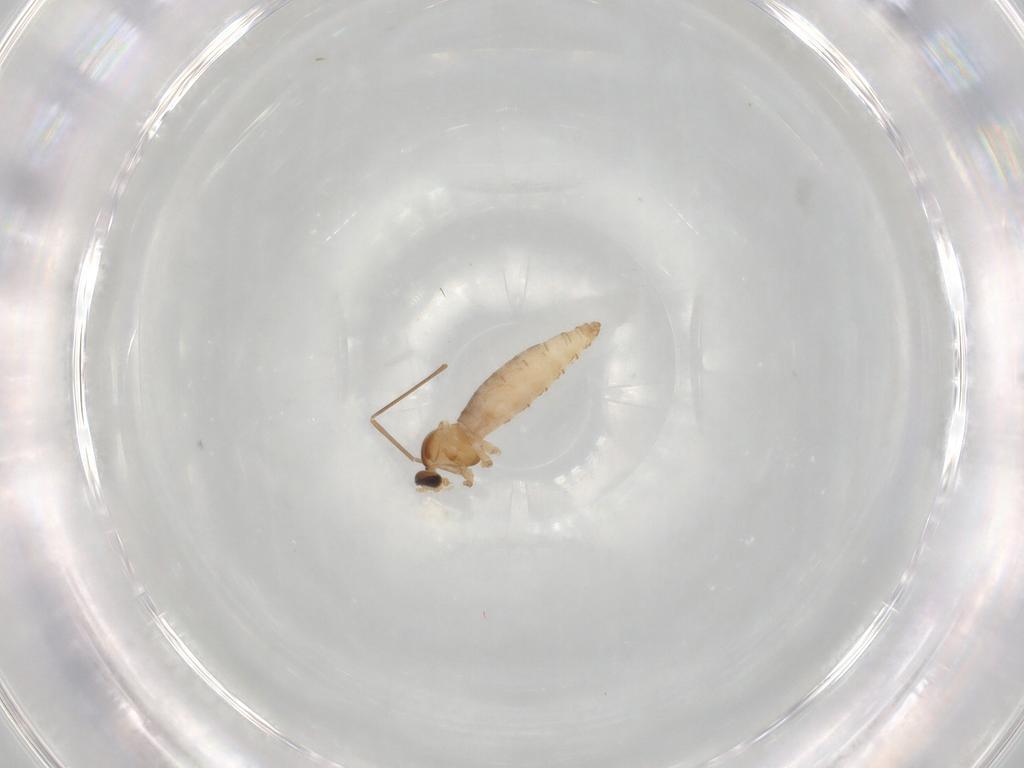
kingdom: Animalia
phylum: Arthropoda
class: Insecta
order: Diptera
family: Cecidomyiidae
